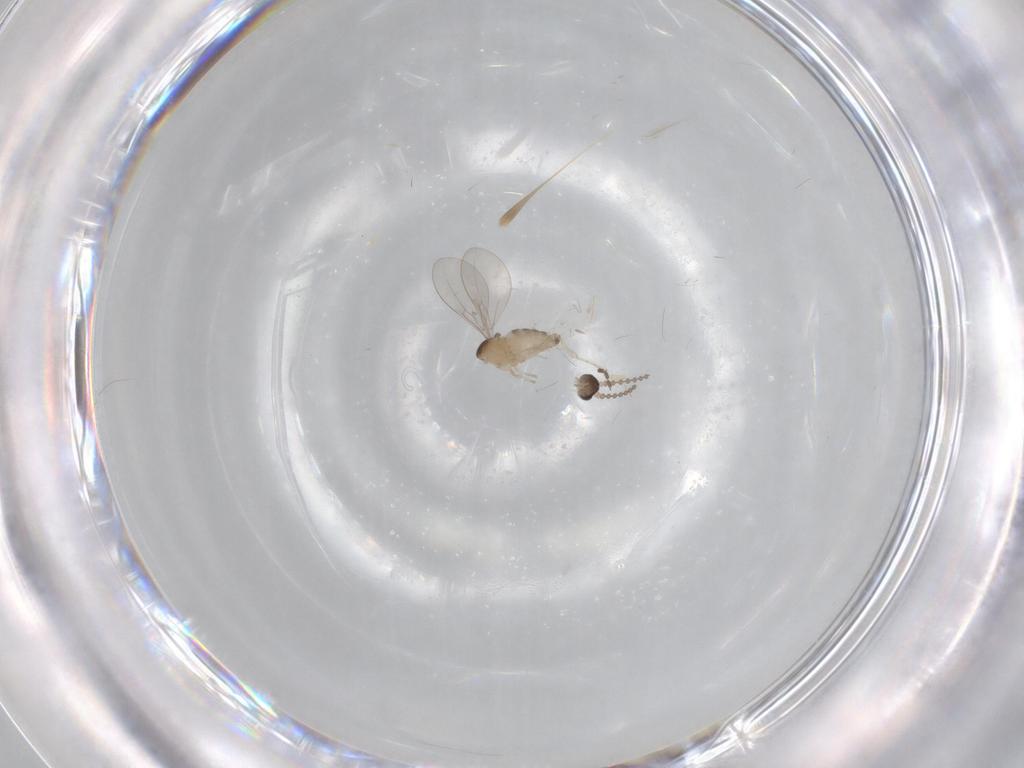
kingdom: Animalia
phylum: Arthropoda
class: Insecta
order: Diptera
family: Cecidomyiidae
